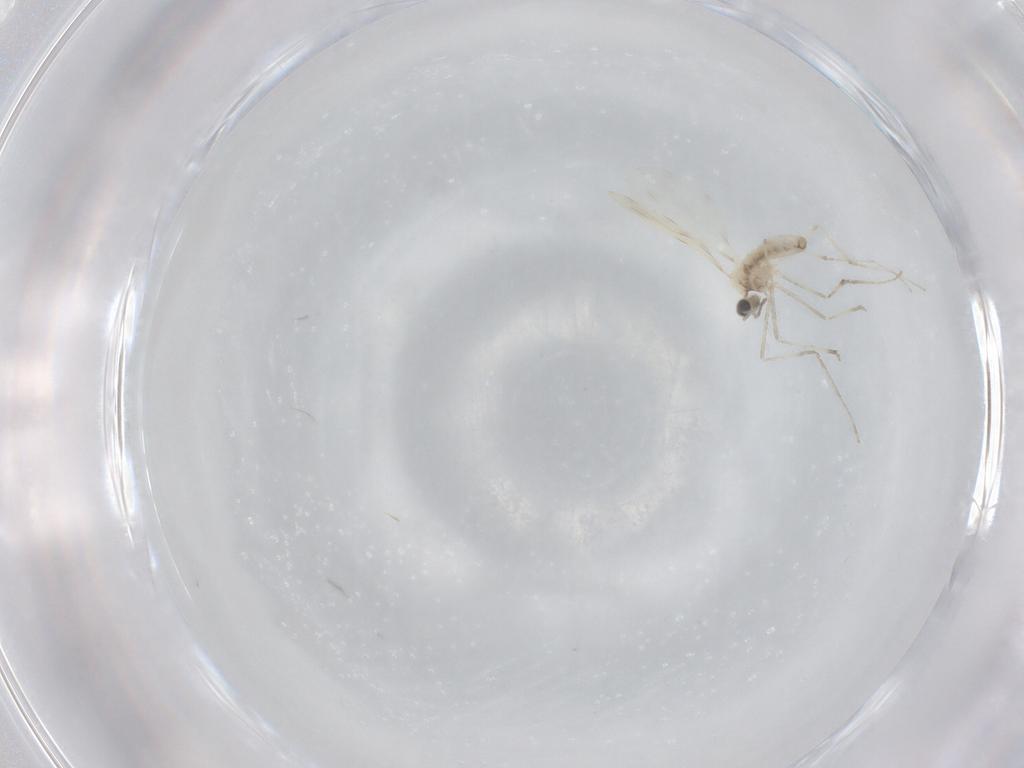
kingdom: Animalia
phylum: Arthropoda
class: Insecta
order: Diptera
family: Cecidomyiidae
